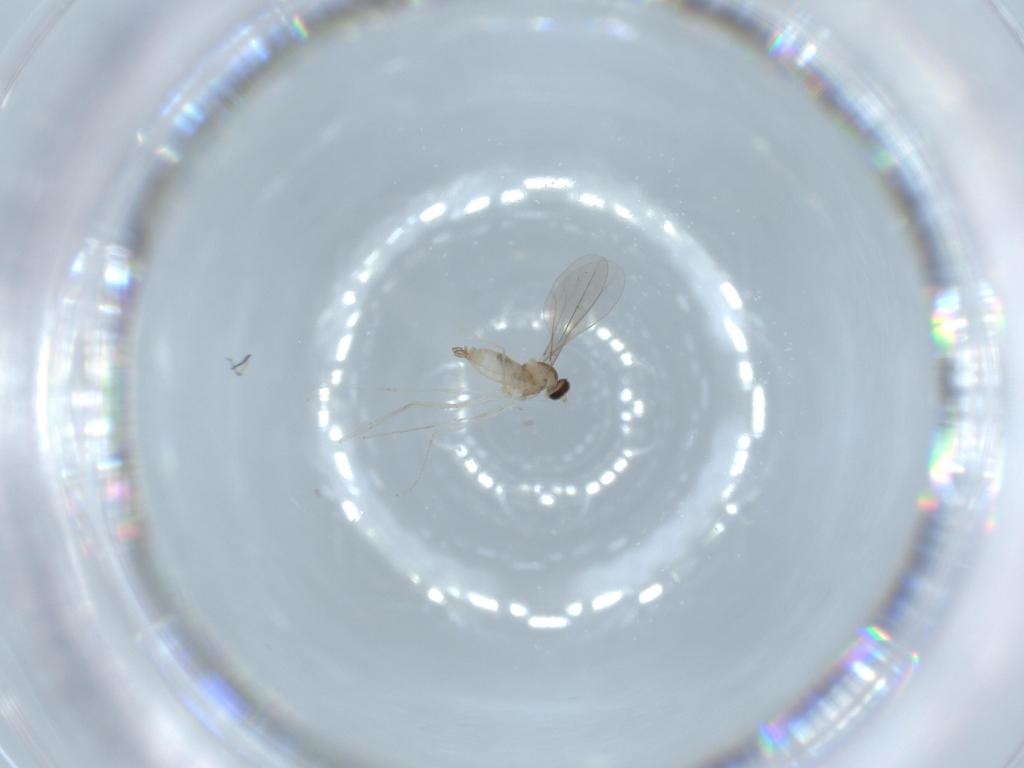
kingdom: Animalia
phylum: Arthropoda
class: Insecta
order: Diptera
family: Cecidomyiidae
